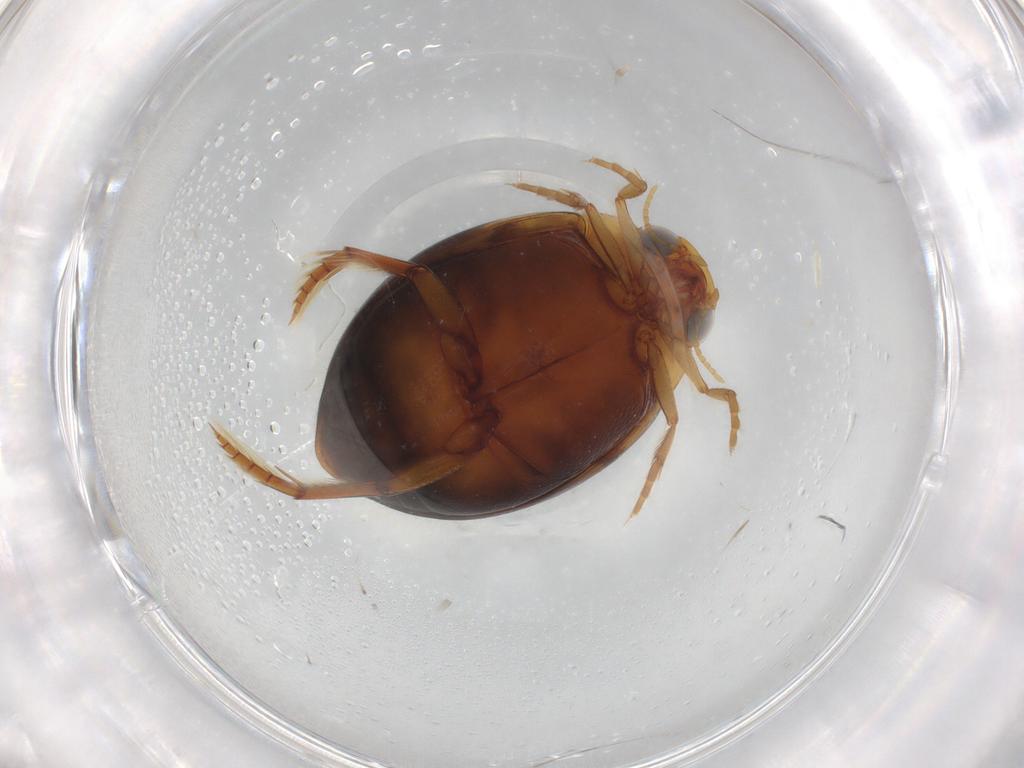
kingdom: Animalia
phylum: Arthropoda
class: Insecta
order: Coleoptera
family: Dytiscidae
